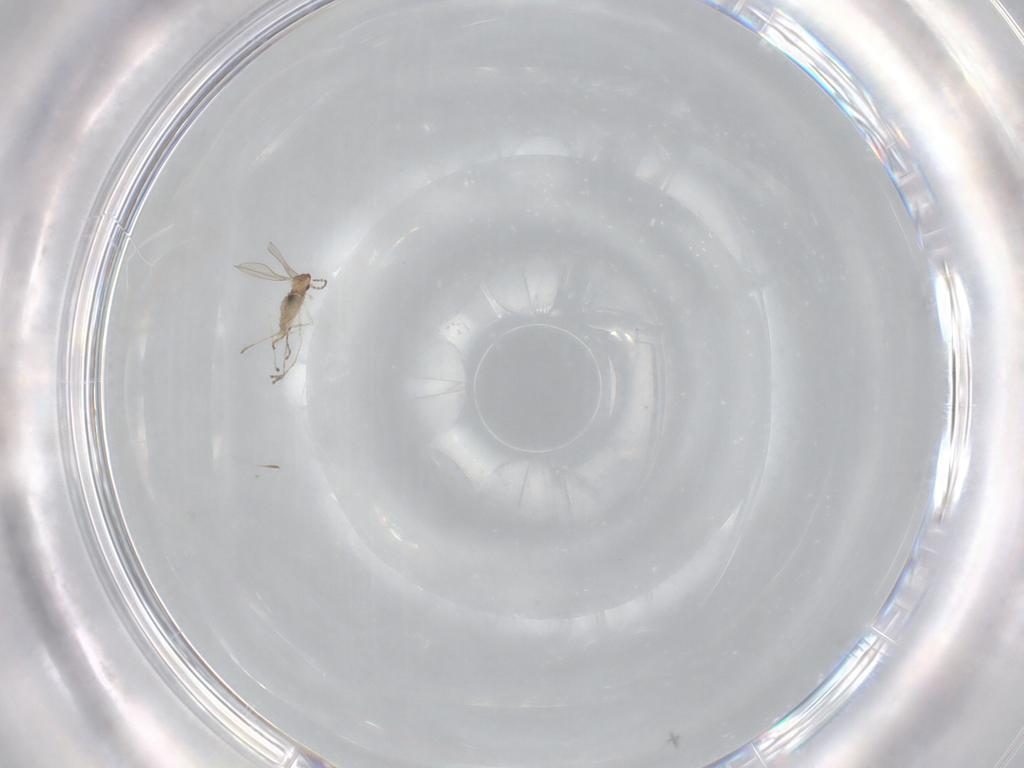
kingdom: Animalia
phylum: Arthropoda
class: Insecta
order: Diptera
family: Cecidomyiidae
